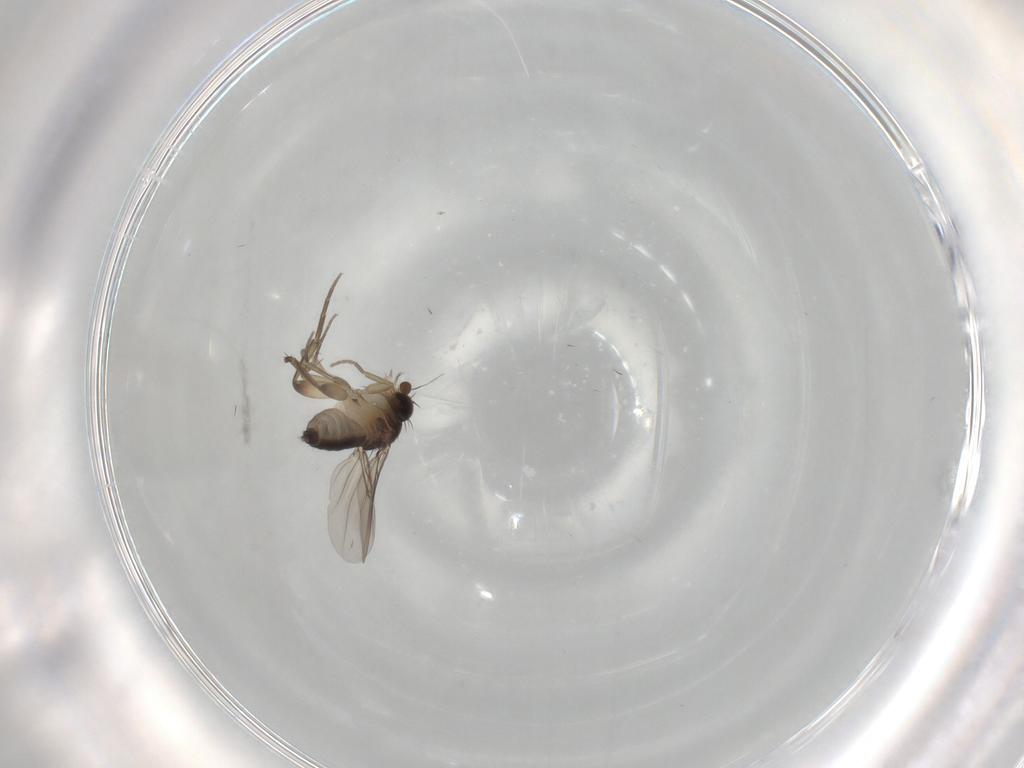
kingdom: Animalia
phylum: Arthropoda
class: Insecta
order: Diptera
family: Phoridae
